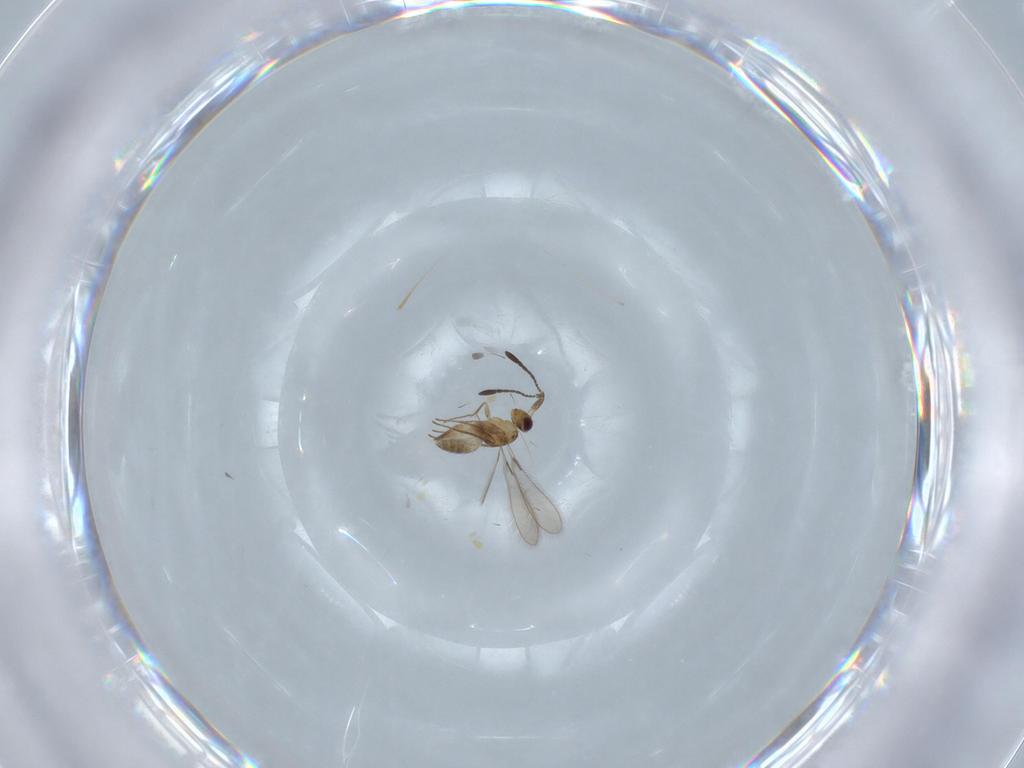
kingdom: Animalia
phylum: Arthropoda
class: Insecta
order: Hymenoptera
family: Mymaridae
